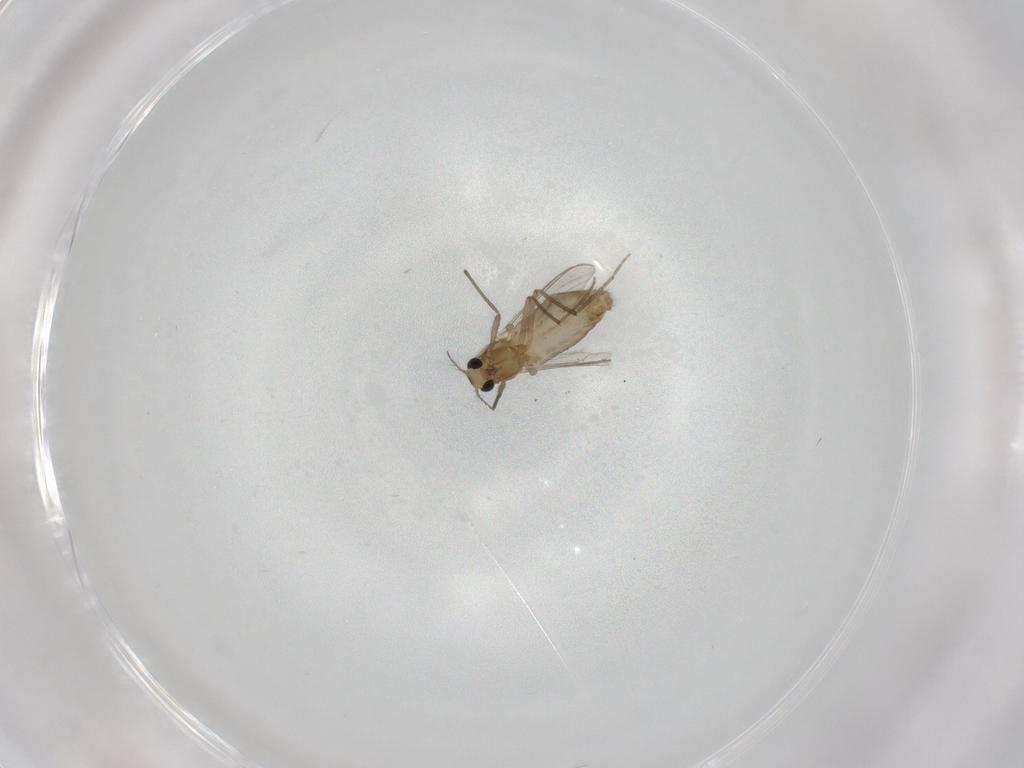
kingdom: Animalia
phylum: Arthropoda
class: Insecta
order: Diptera
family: Chironomidae
